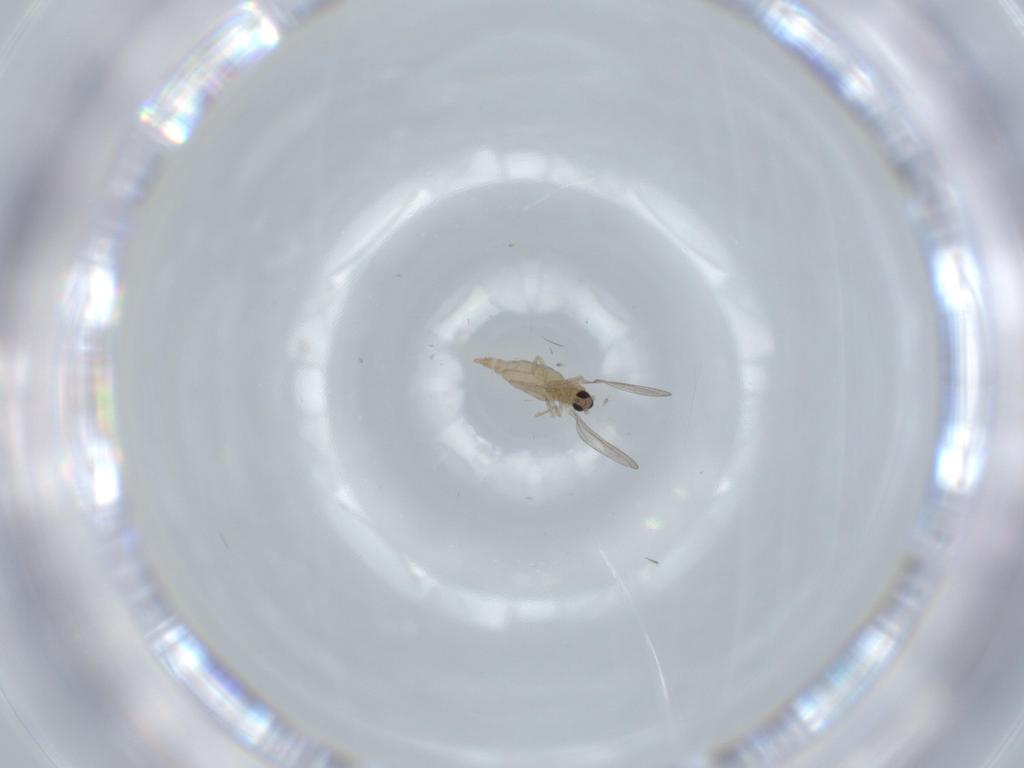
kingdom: Animalia
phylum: Arthropoda
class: Insecta
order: Diptera
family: Cecidomyiidae
